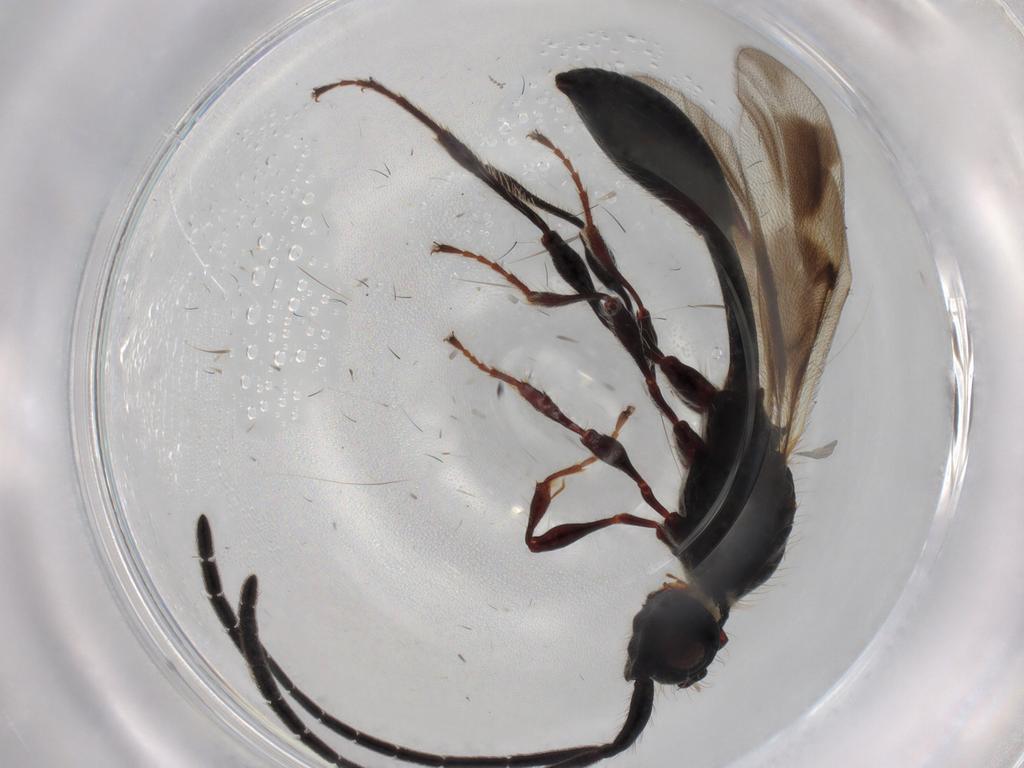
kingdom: Animalia
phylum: Arthropoda
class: Insecta
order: Hymenoptera
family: Diapriidae
